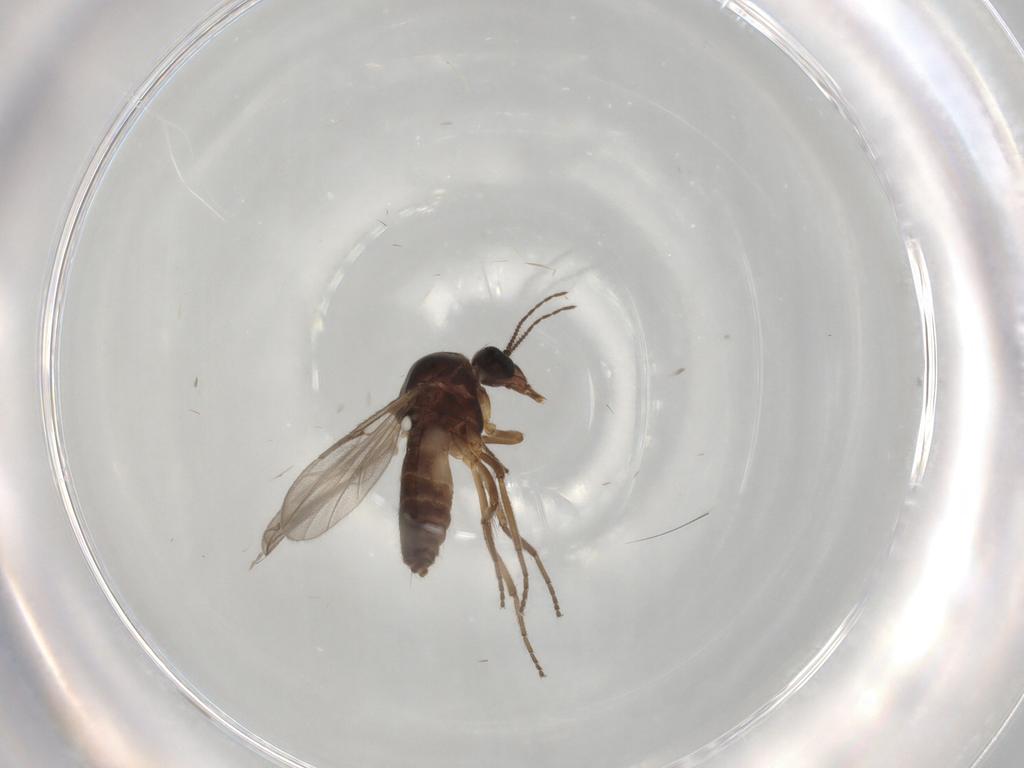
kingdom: Animalia
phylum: Arthropoda
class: Insecta
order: Diptera
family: Ceratopogonidae
